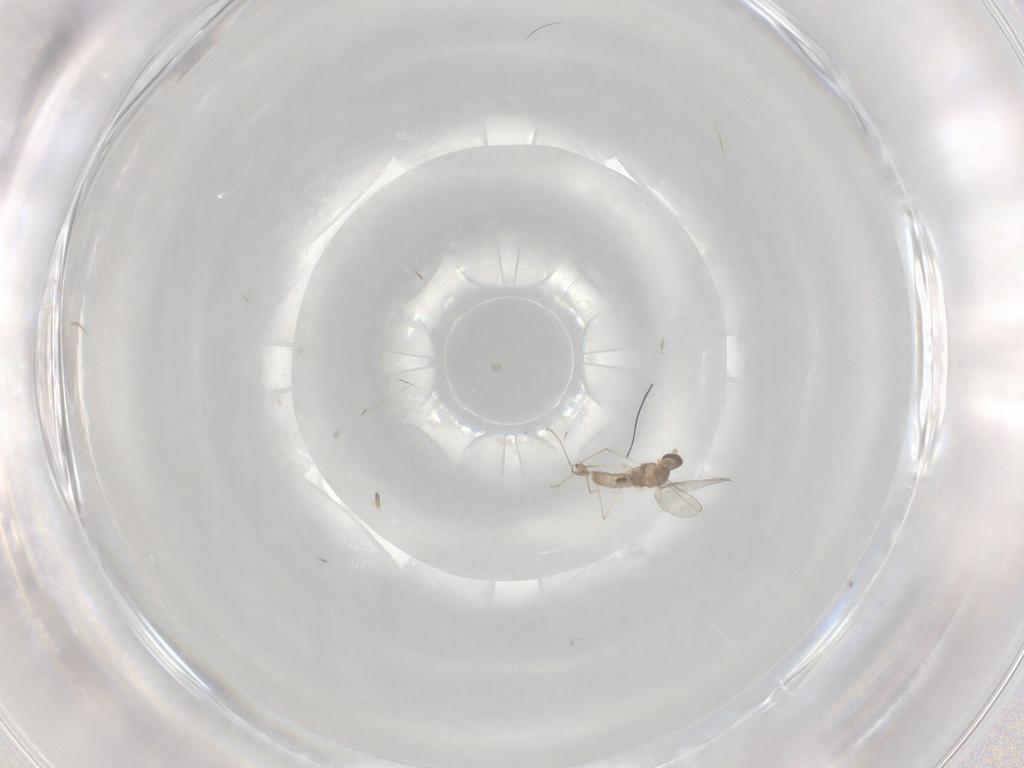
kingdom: Animalia
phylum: Arthropoda
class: Insecta
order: Diptera
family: Cecidomyiidae
